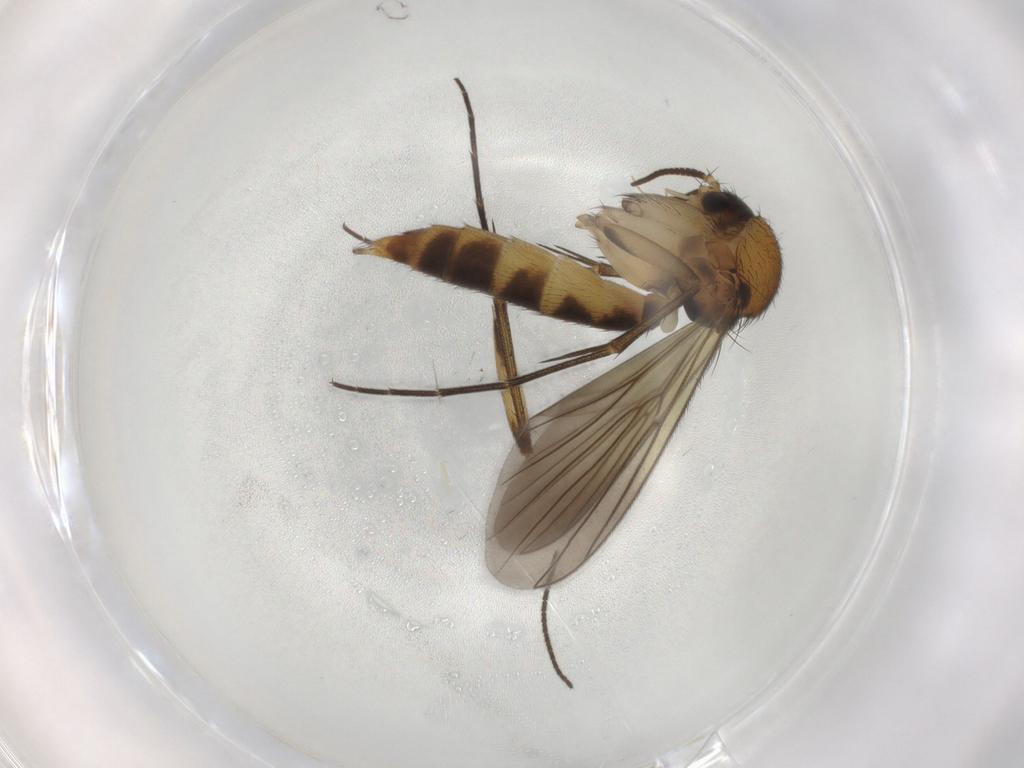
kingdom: Animalia
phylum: Arthropoda
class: Insecta
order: Diptera
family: Mycetophilidae
